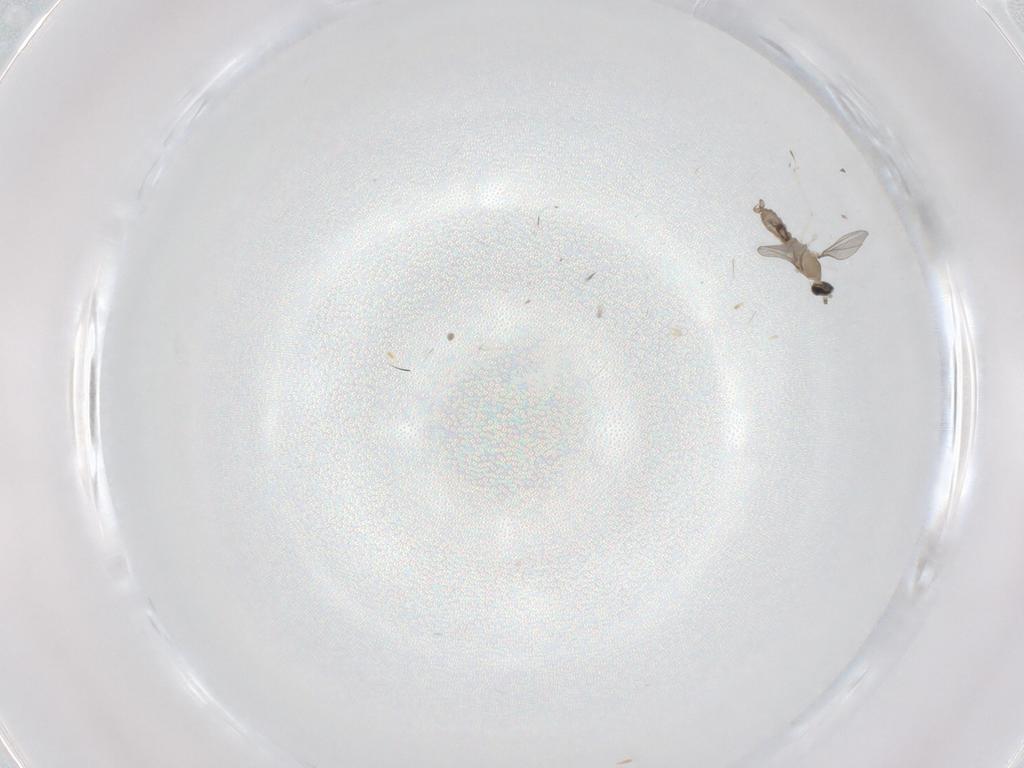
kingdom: Animalia
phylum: Arthropoda
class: Insecta
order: Diptera
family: Cecidomyiidae
